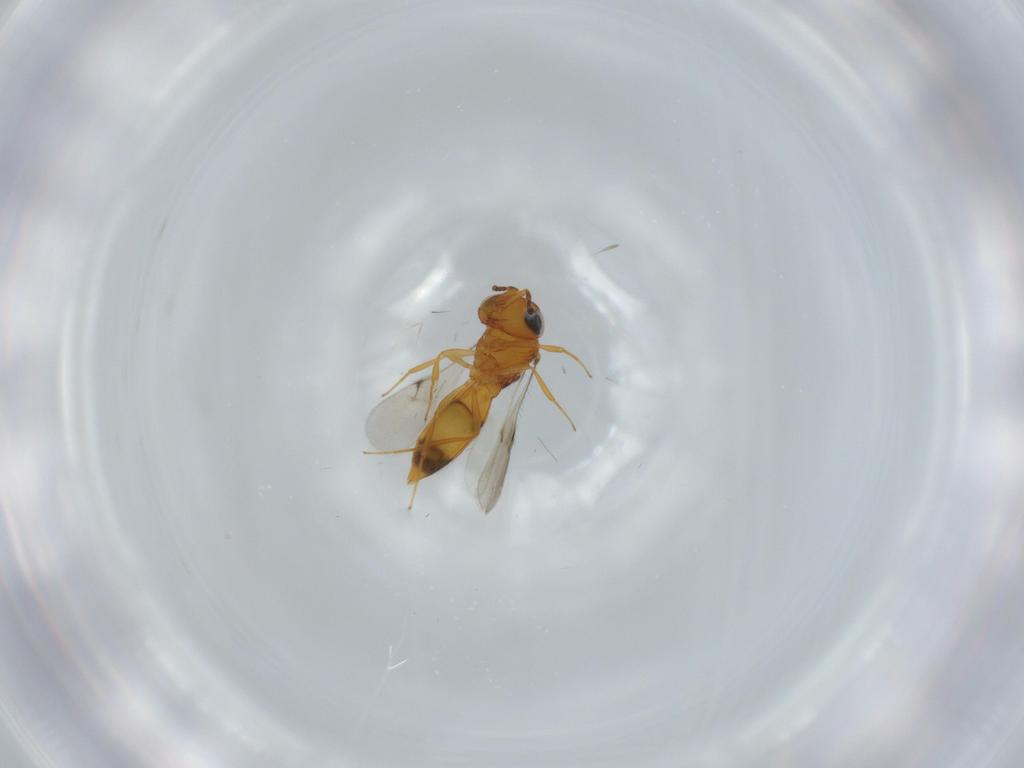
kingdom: Animalia
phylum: Arthropoda
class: Insecta
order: Hymenoptera
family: Scelionidae
